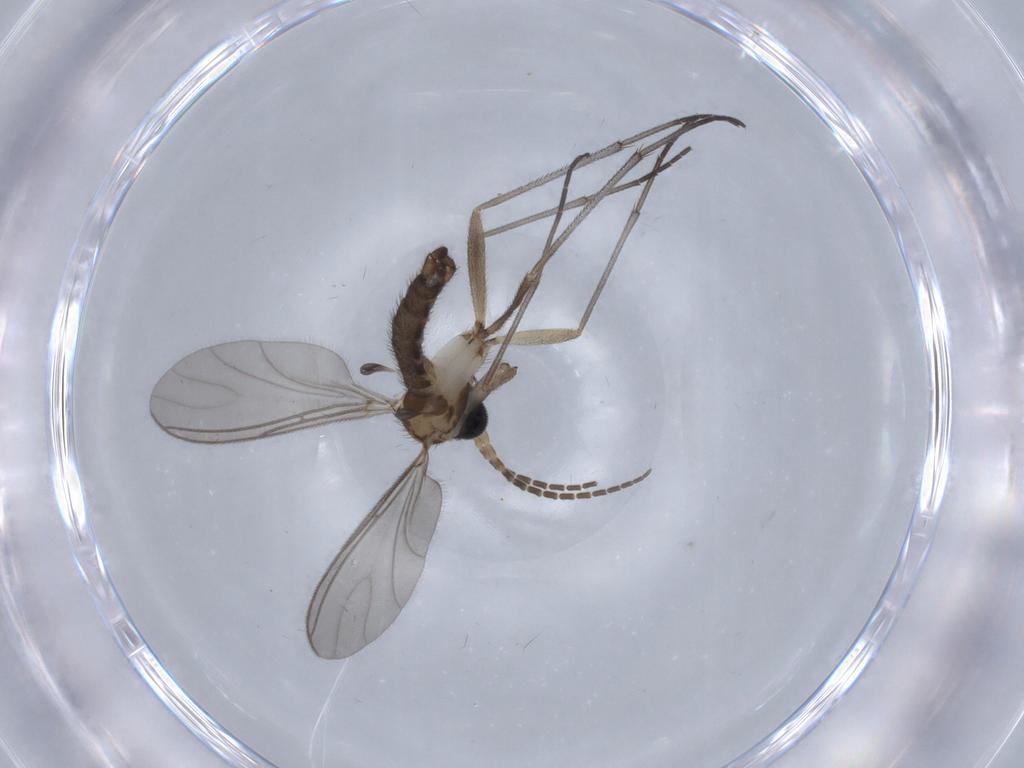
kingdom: Animalia
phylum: Arthropoda
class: Insecta
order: Diptera
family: Sciaridae
